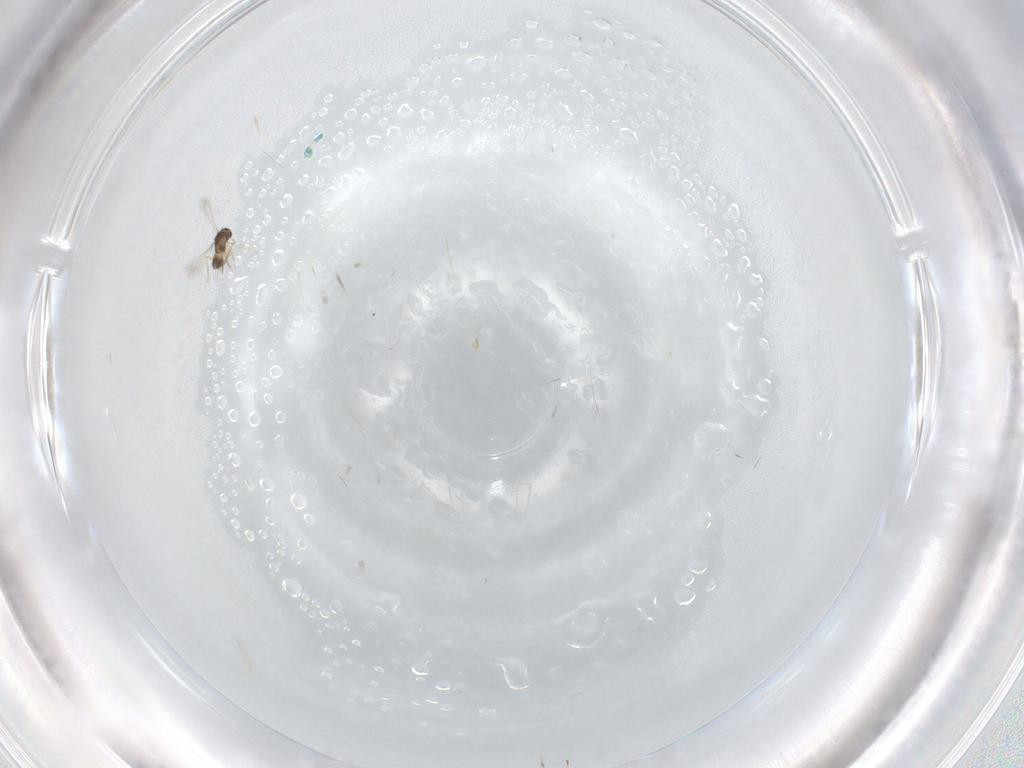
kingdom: Animalia
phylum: Arthropoda
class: Insecta
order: Hymenoptera
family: Mymaridae
